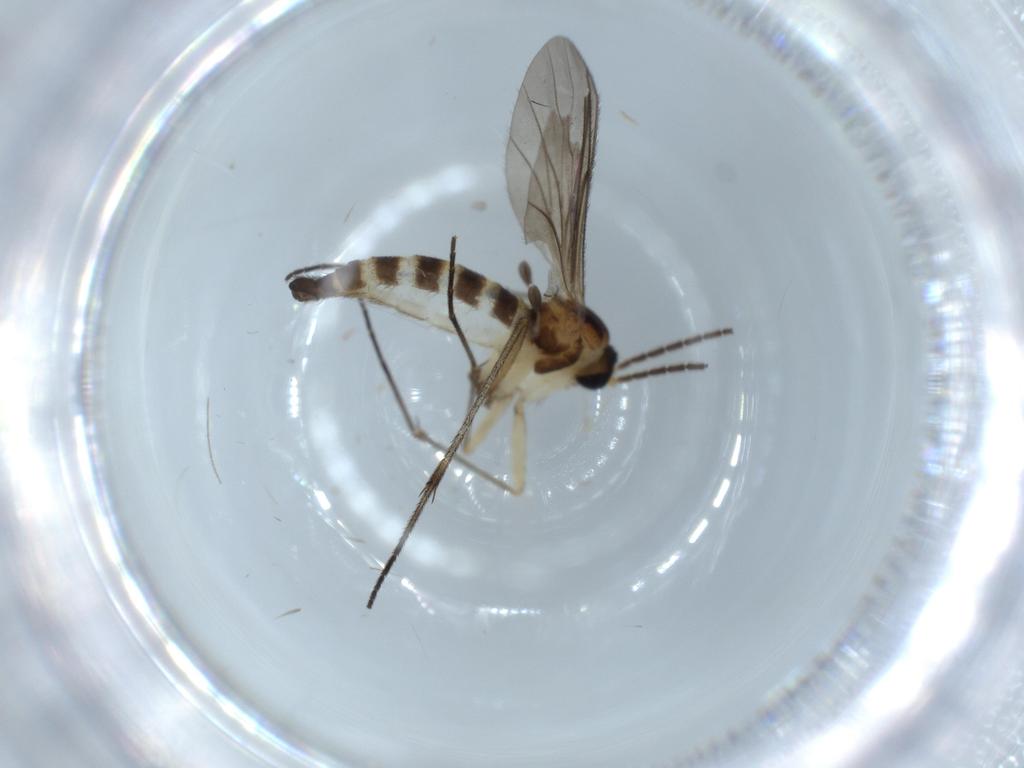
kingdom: Animalia
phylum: Arthropoda
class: Insecta
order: Diptera
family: Sciaridae
